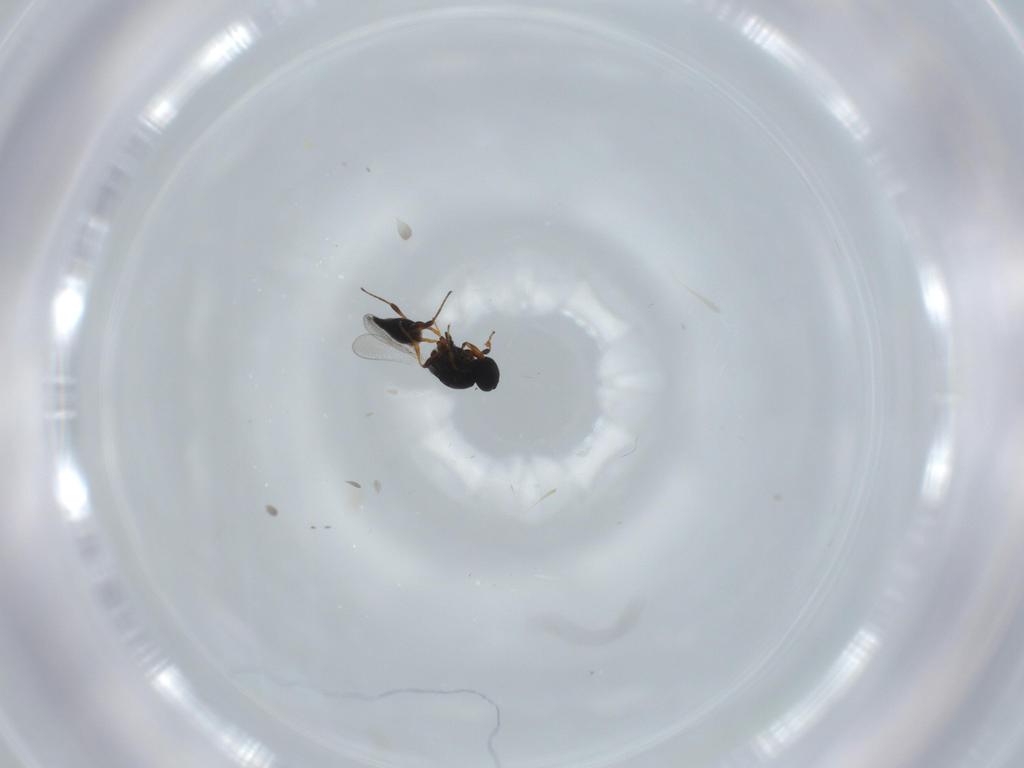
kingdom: Animalia
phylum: Arthropoda
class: Insecta
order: Hymenoptera
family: Platygastridae
